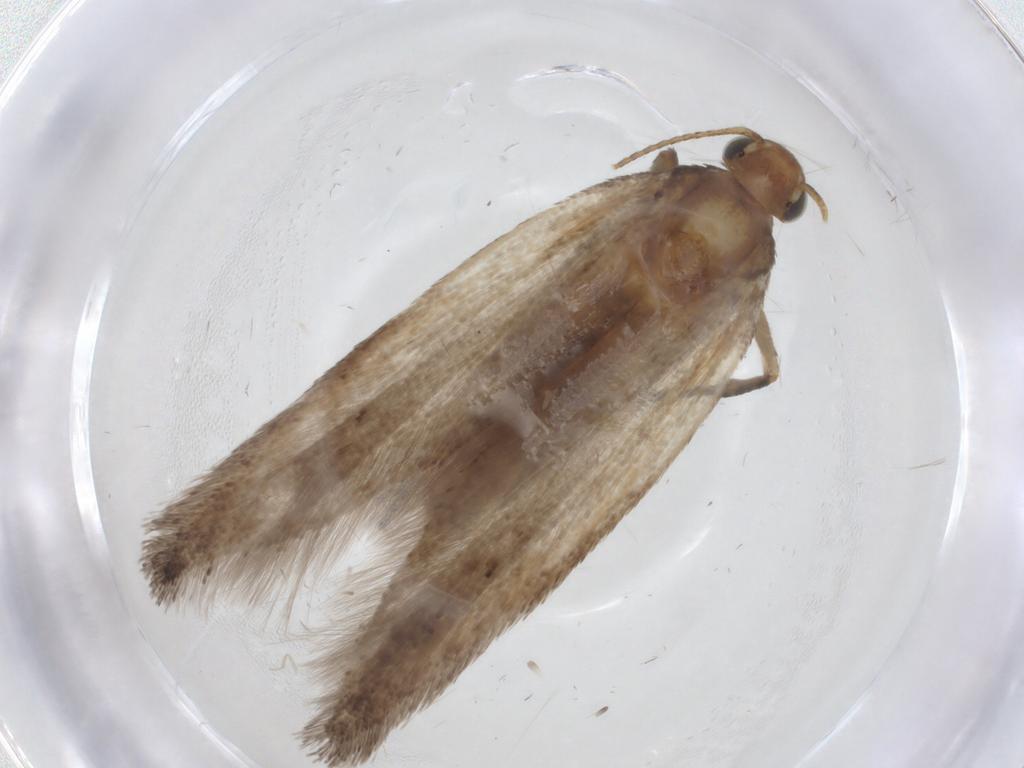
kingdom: Animalia
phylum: Arthropoda
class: Insecta
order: Lepidoptera
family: Gelechiidae
